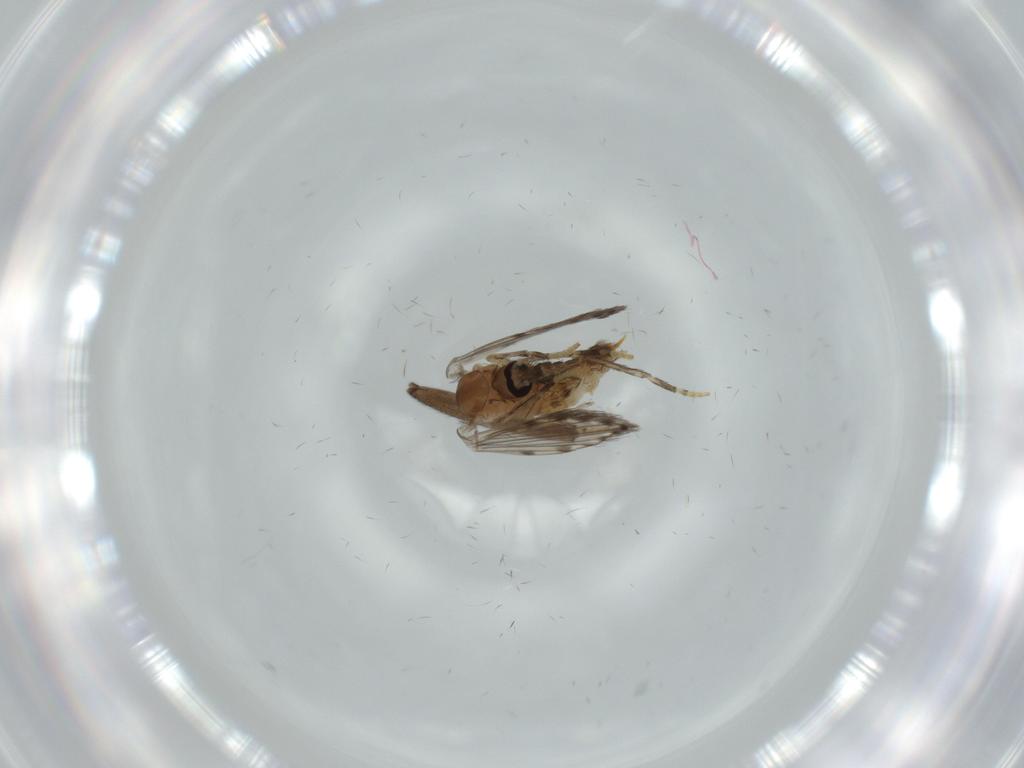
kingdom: Animalia
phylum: Arthropoda
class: Insecta
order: Diptera
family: Psychodidae
